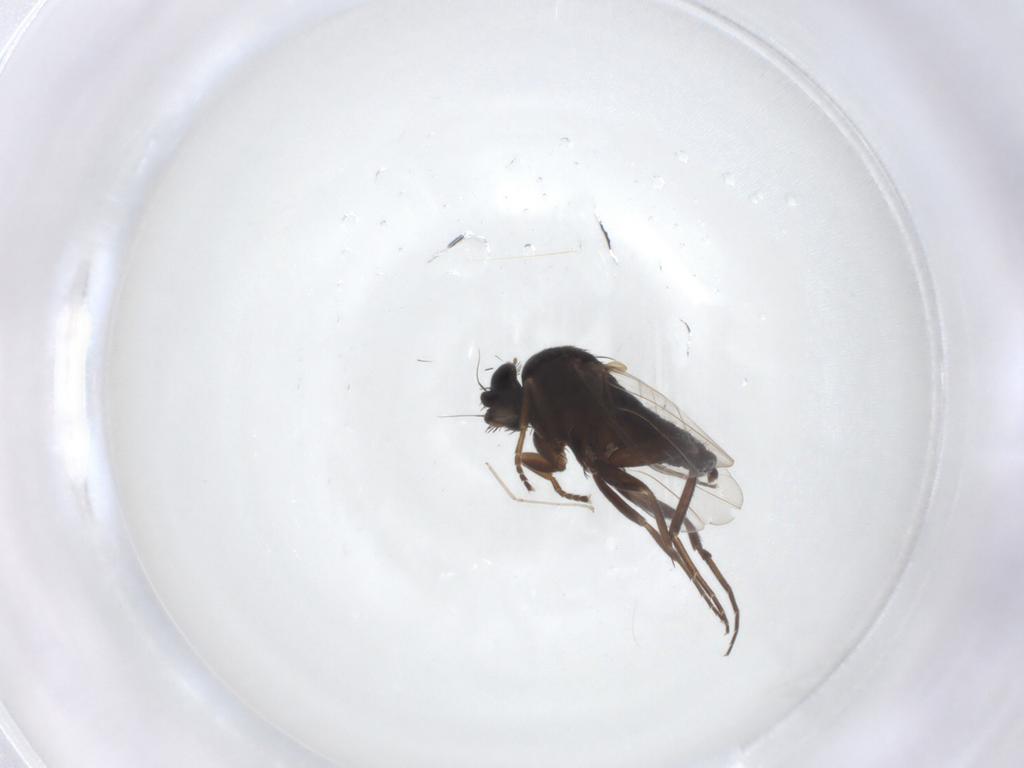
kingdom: Animalia
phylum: Arthropoda
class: Insecta
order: Diptera
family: Phoridae
